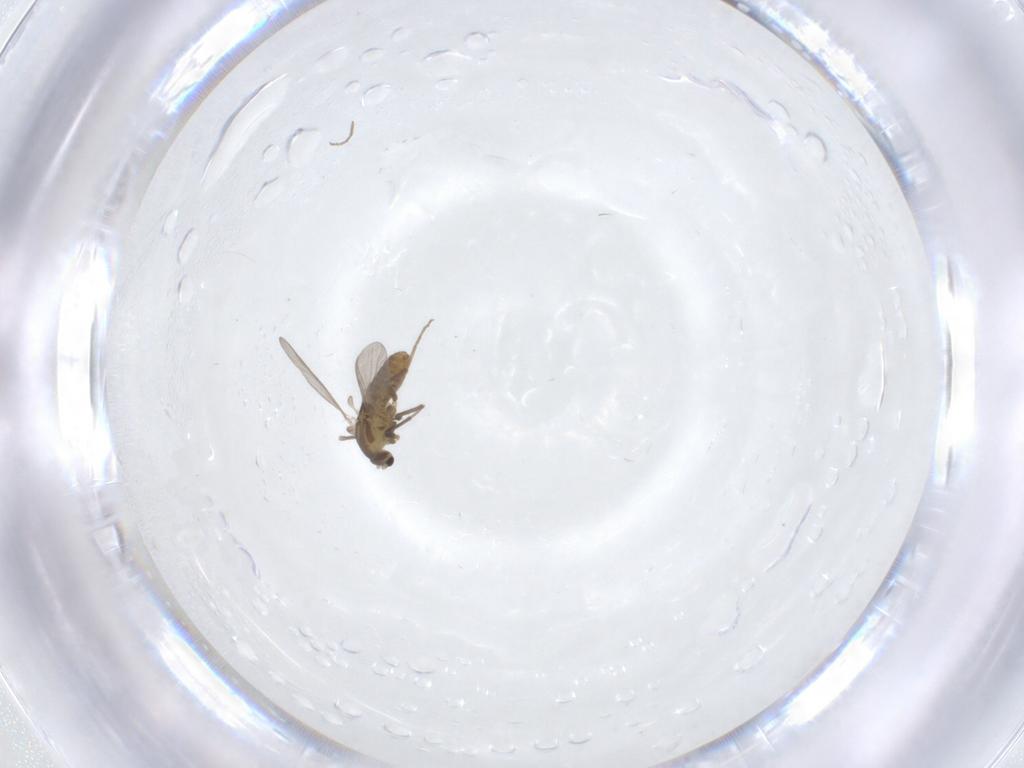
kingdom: Animalia
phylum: Arthropoda
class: Insecta
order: Diptera
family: Chironomidae
